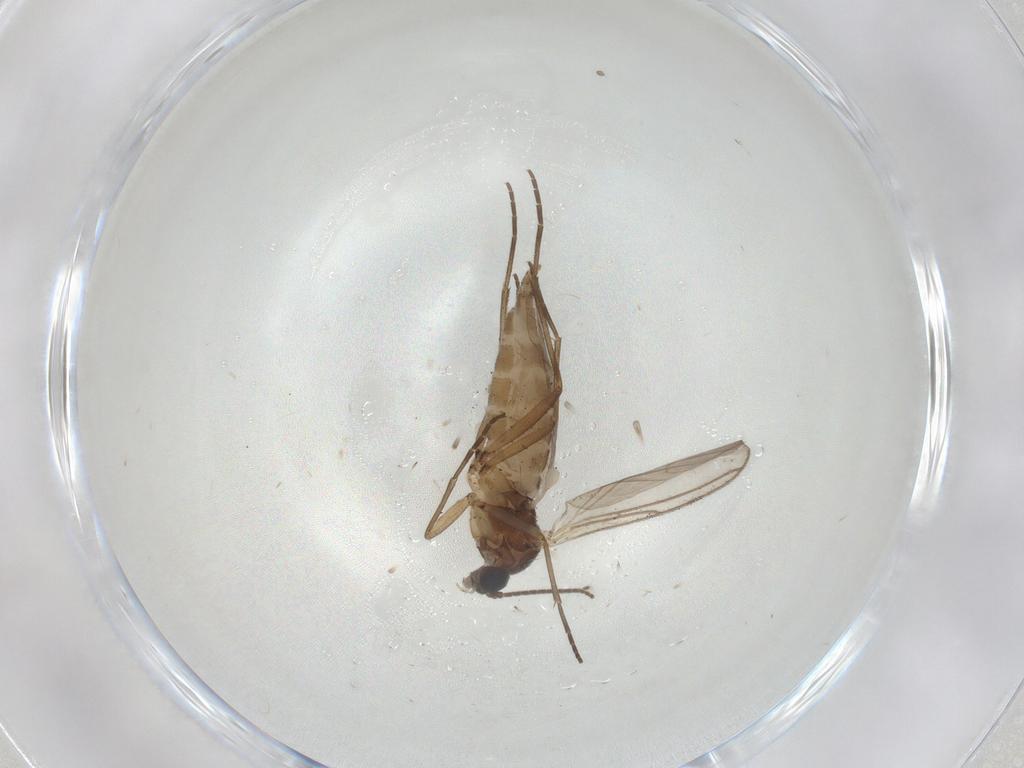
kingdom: Animalia
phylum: Arthropoda
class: Insecta
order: Diptera
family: Sciaridae
